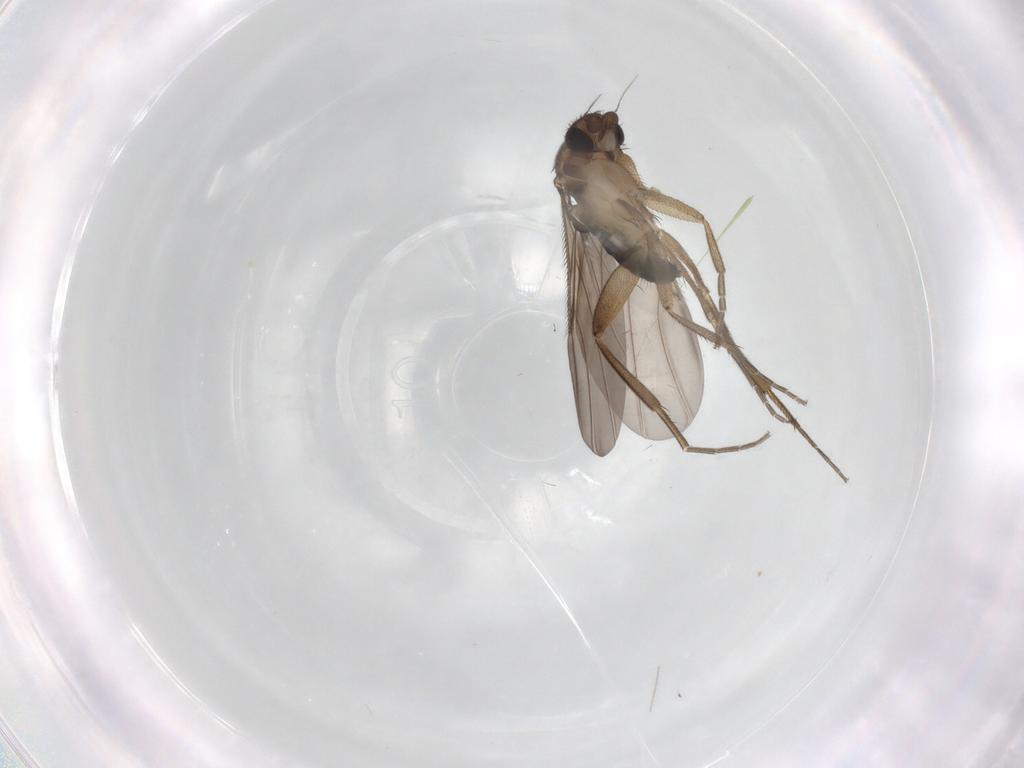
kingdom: Animalia
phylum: Arthropoda
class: Insecta
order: Diptera
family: Phoridae
